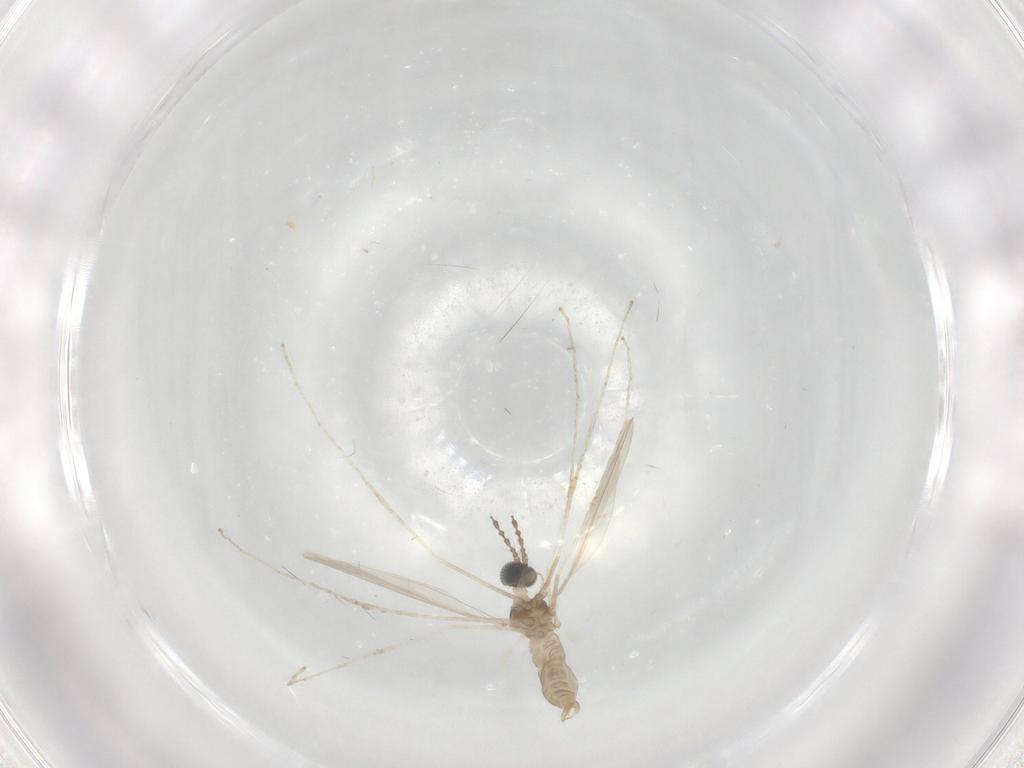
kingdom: Animalia
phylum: Arthropoda
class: Insecta
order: Diptera
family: Cecidomyiidae
